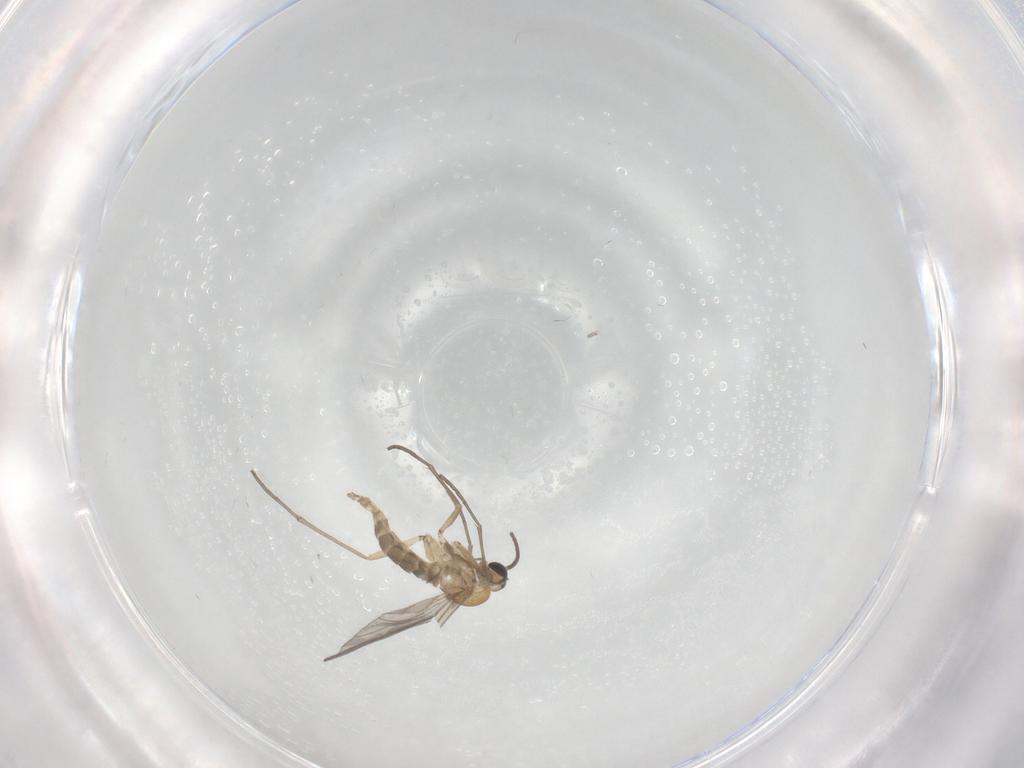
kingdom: Animalia
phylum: Arthropoda
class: Insecta
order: Diptera
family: Sciaridae
